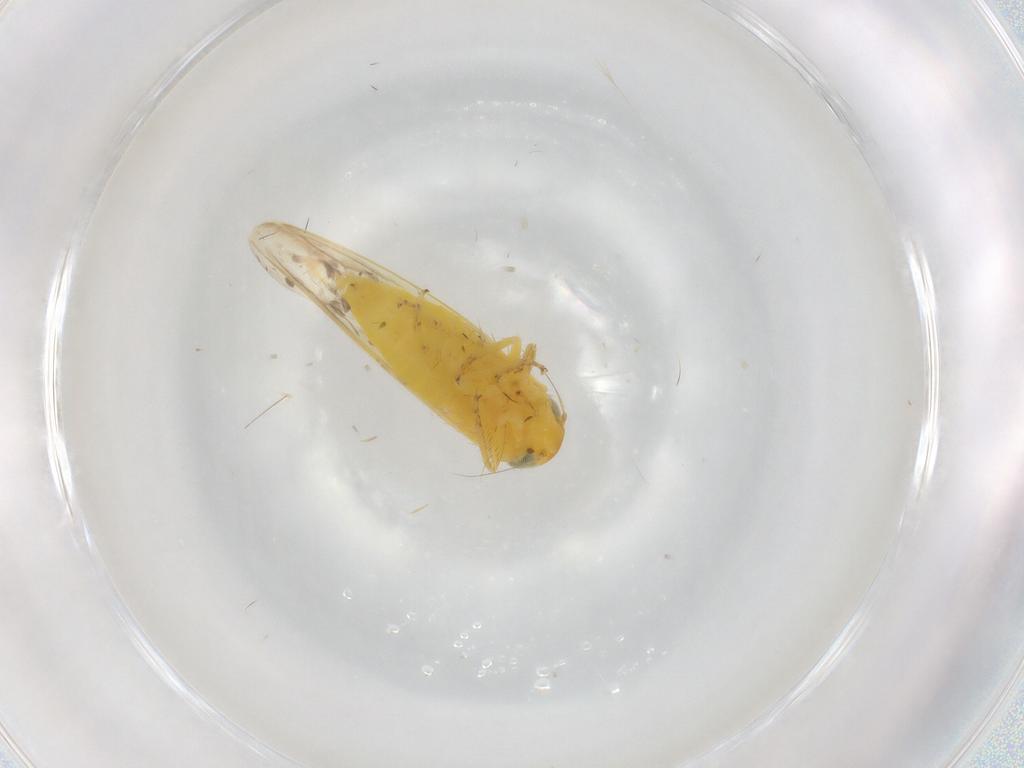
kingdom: Animalia
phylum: Arthropoda
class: Insecta
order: Hemiptera
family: Cicadellidae
